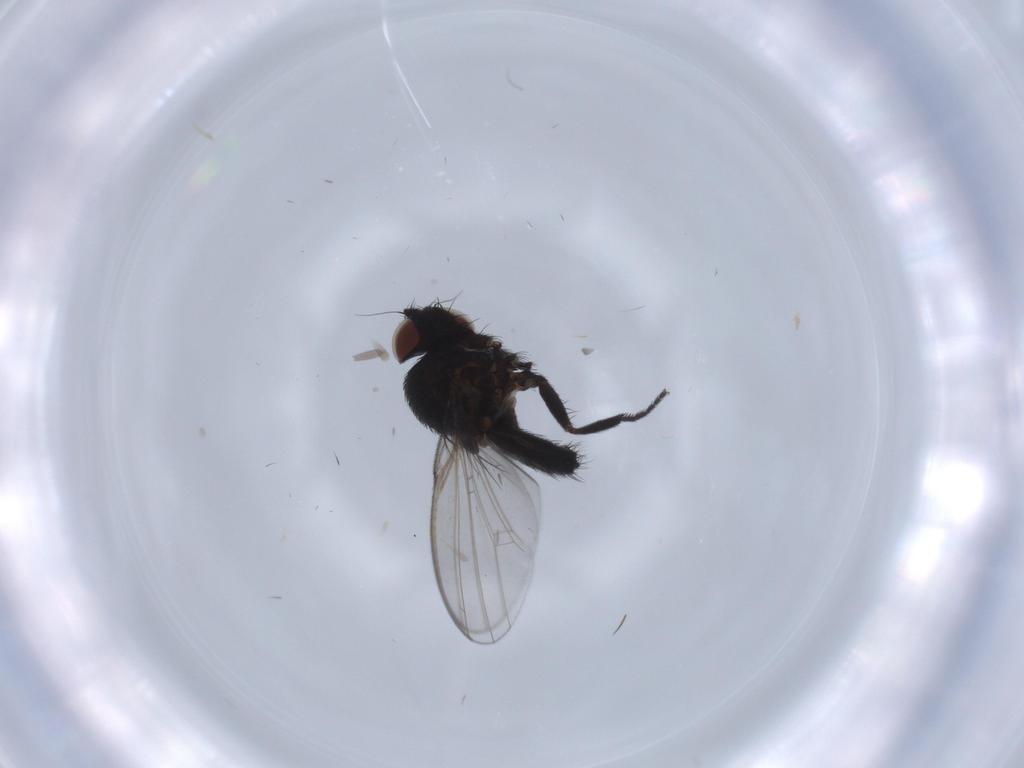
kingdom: Animalia
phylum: Arthropoda
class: Insecta
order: Diptera
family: Milichiidae
